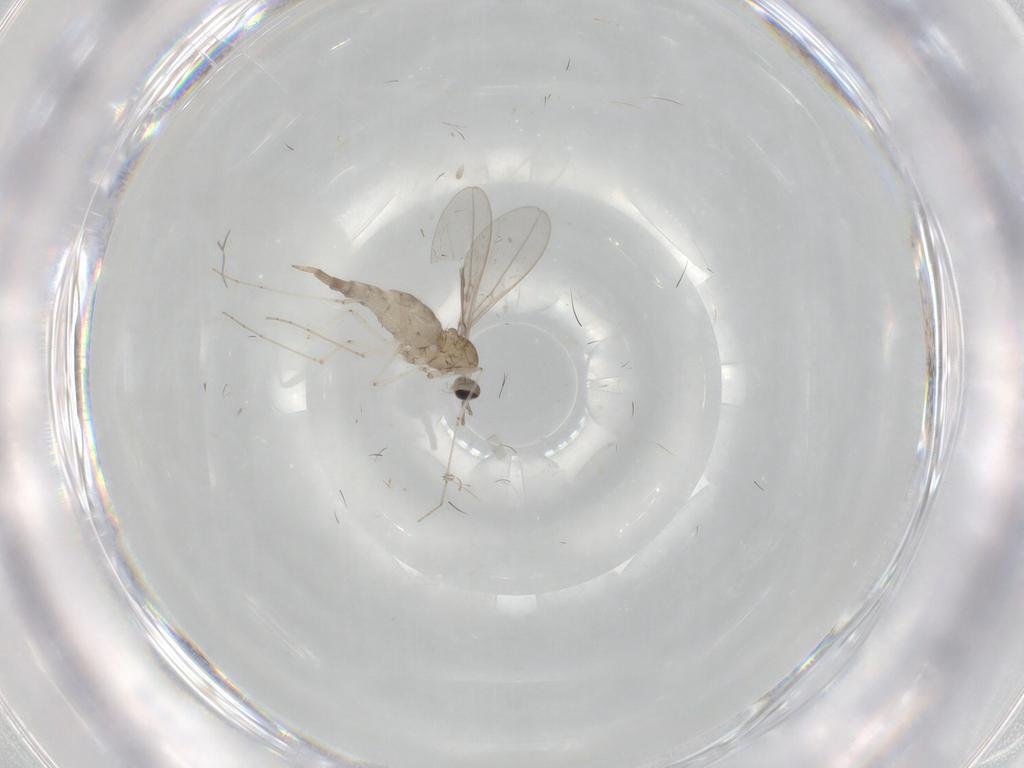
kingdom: Animalia
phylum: Arthropoda
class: Insecta
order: Diptera
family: Cecidomyiidae
